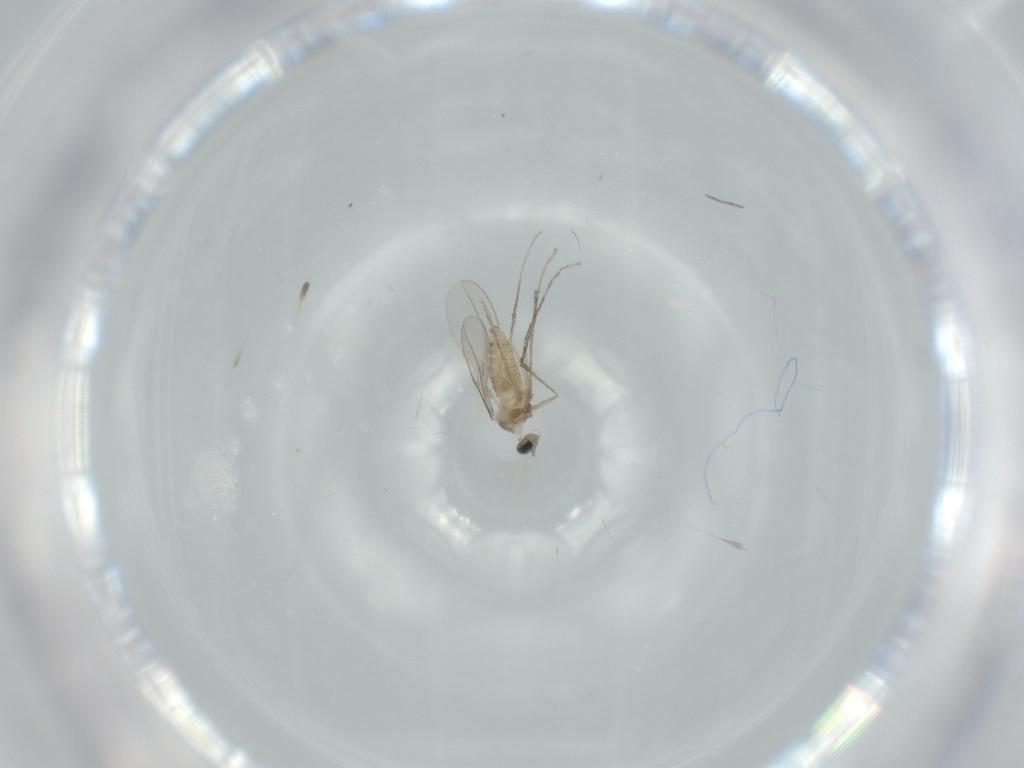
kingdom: Animalia
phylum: Arthropoda
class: Insecta
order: Diptera
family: Cecidomyiidae
